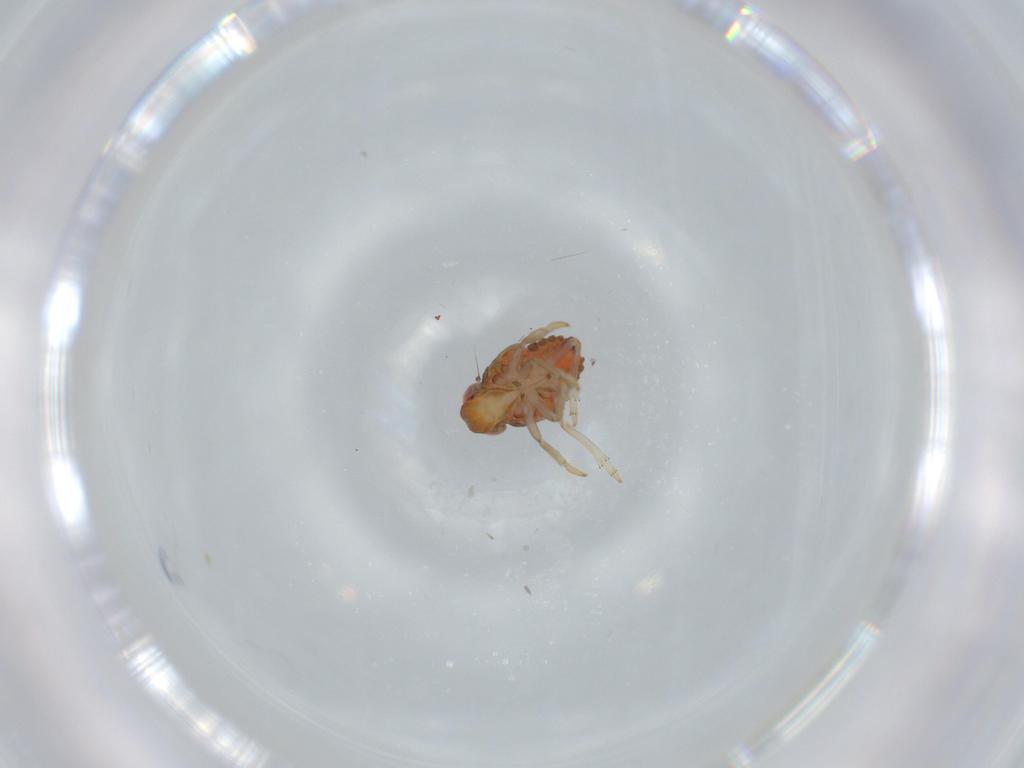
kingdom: Animalia
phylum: Arthropoda
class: Insecta
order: Hemiptera
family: Issidae
